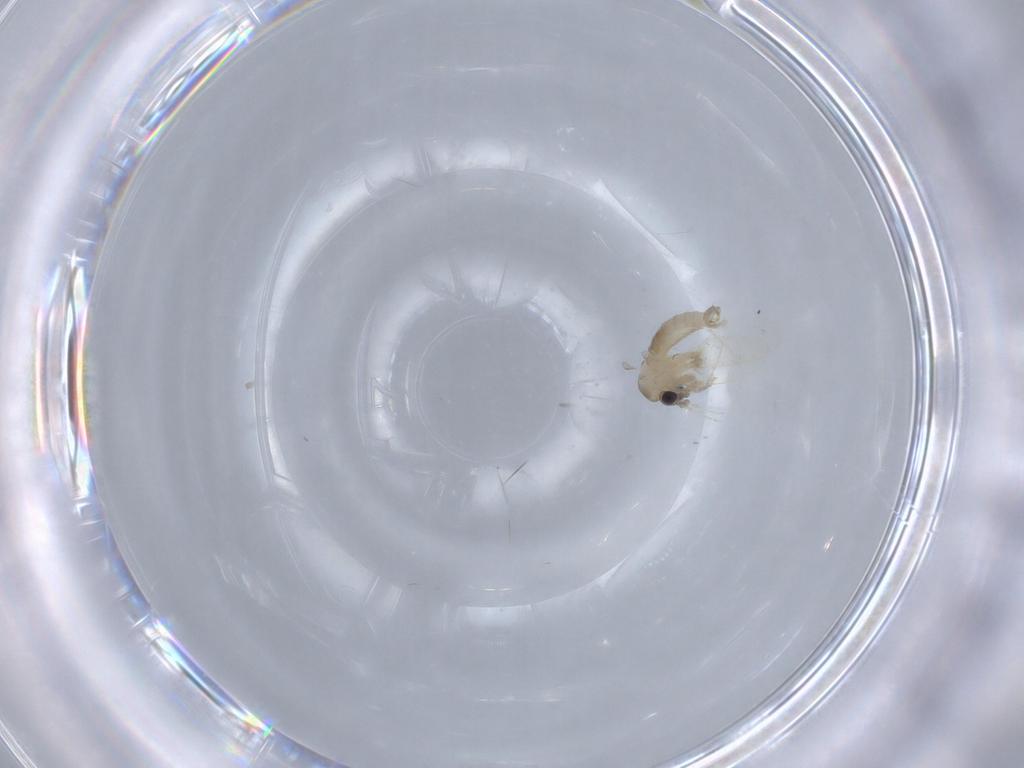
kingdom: Animalia
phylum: Arthropoda
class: Insecta
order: Diptera
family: Psychodidae
